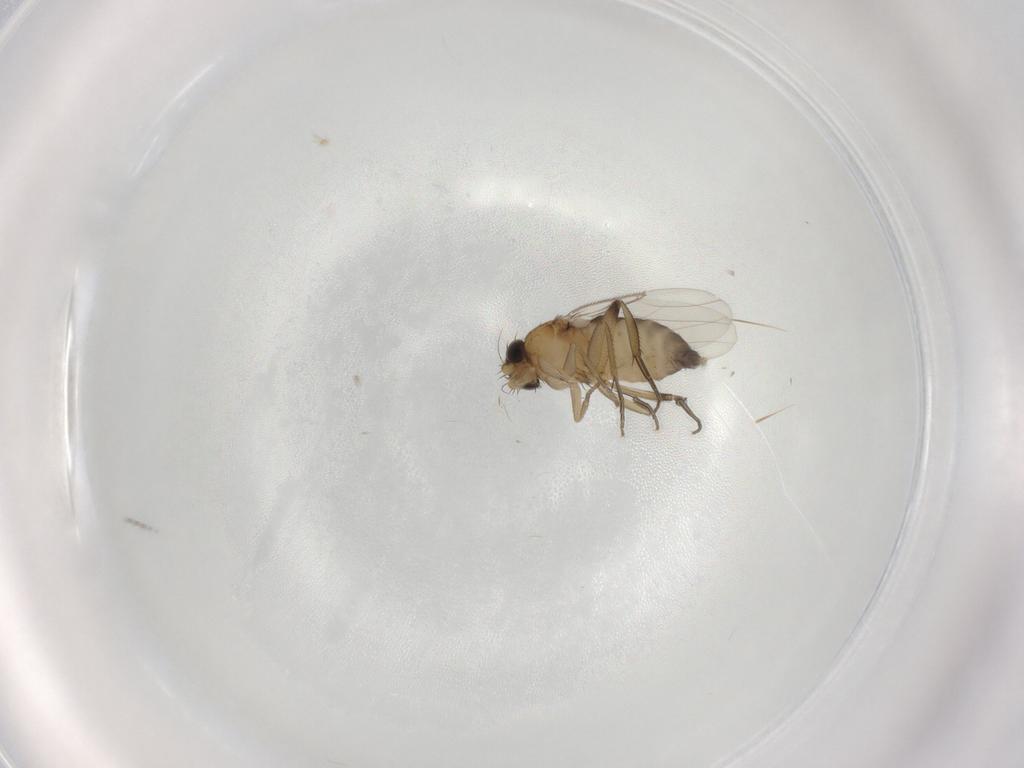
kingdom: Animalia
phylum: Arthropoda
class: Insecta
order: Diptera
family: Phoridae
